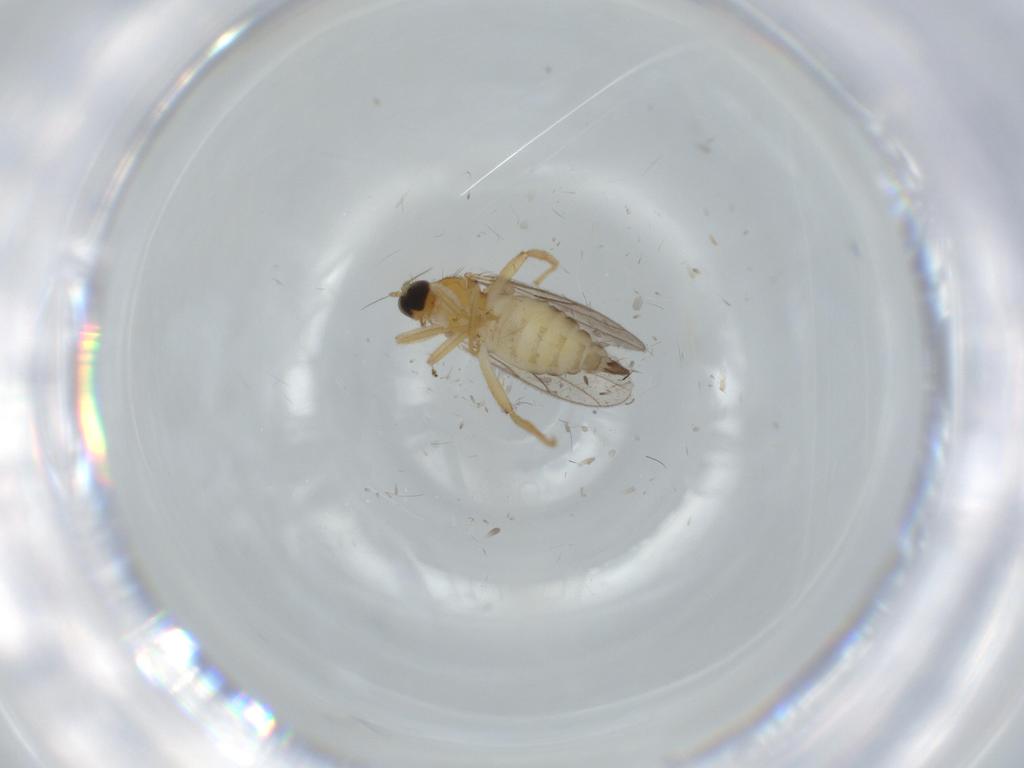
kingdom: Animalia
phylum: Arthropoda
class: Insecta
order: Diptera
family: Hybotidae
